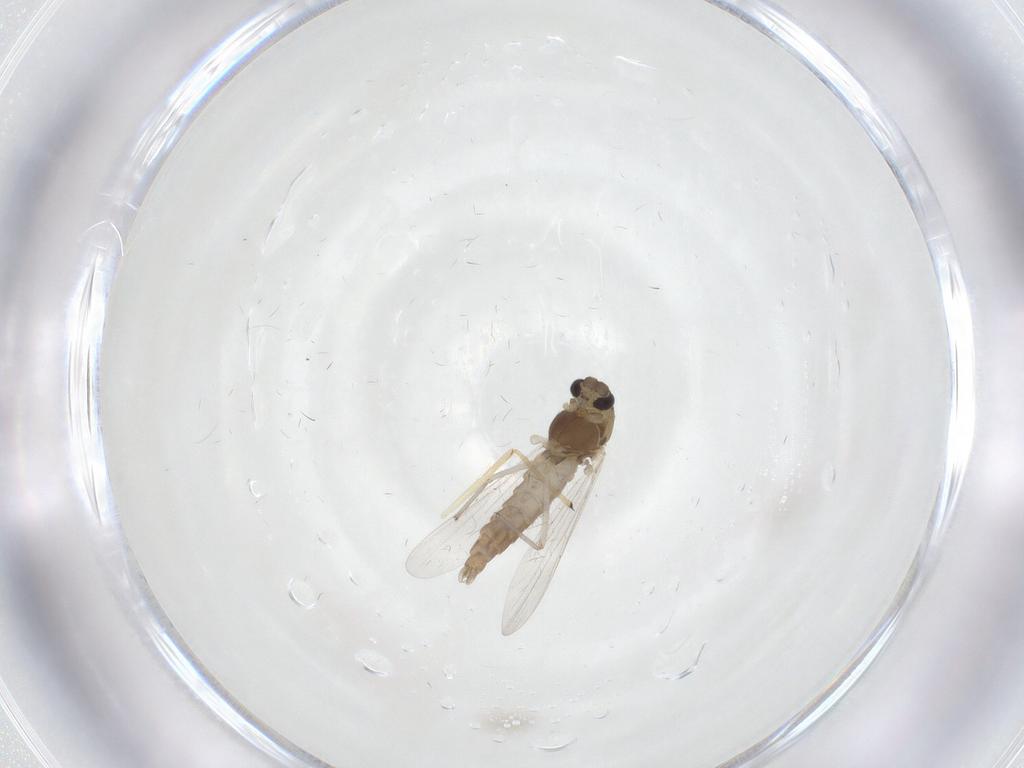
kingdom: Animalia
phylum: Arthropoda
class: Insecta
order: Diptera
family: Chironomidae
